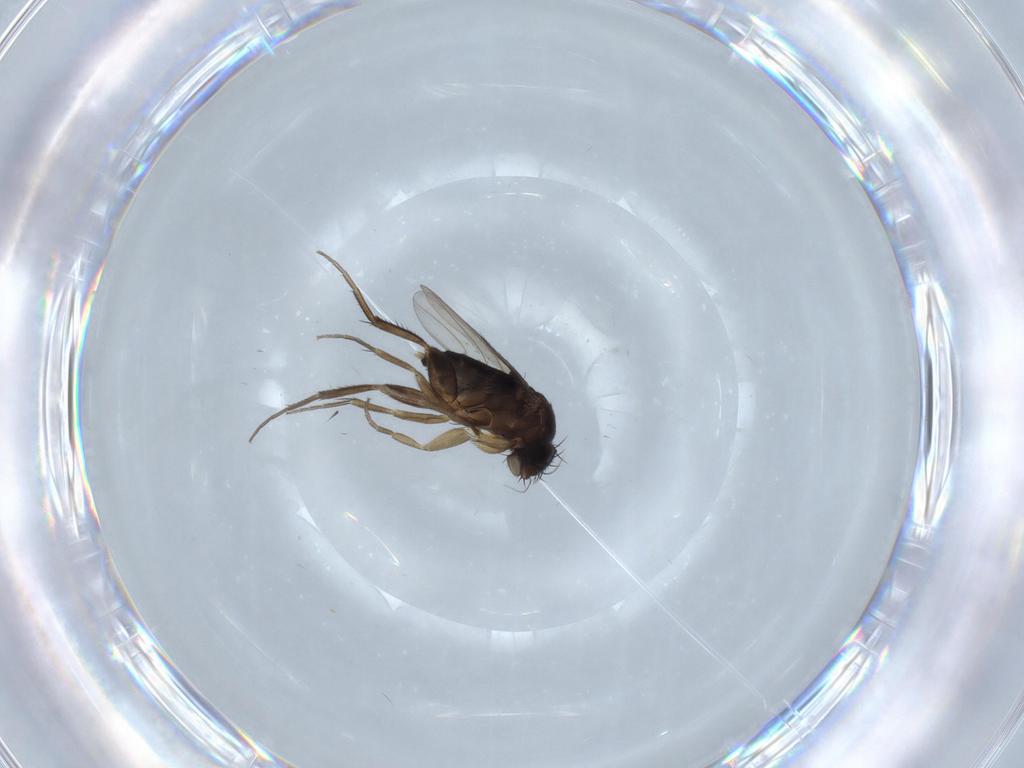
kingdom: Animalia
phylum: Arthropoda
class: Insecta
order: Diptera
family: Phoridae
